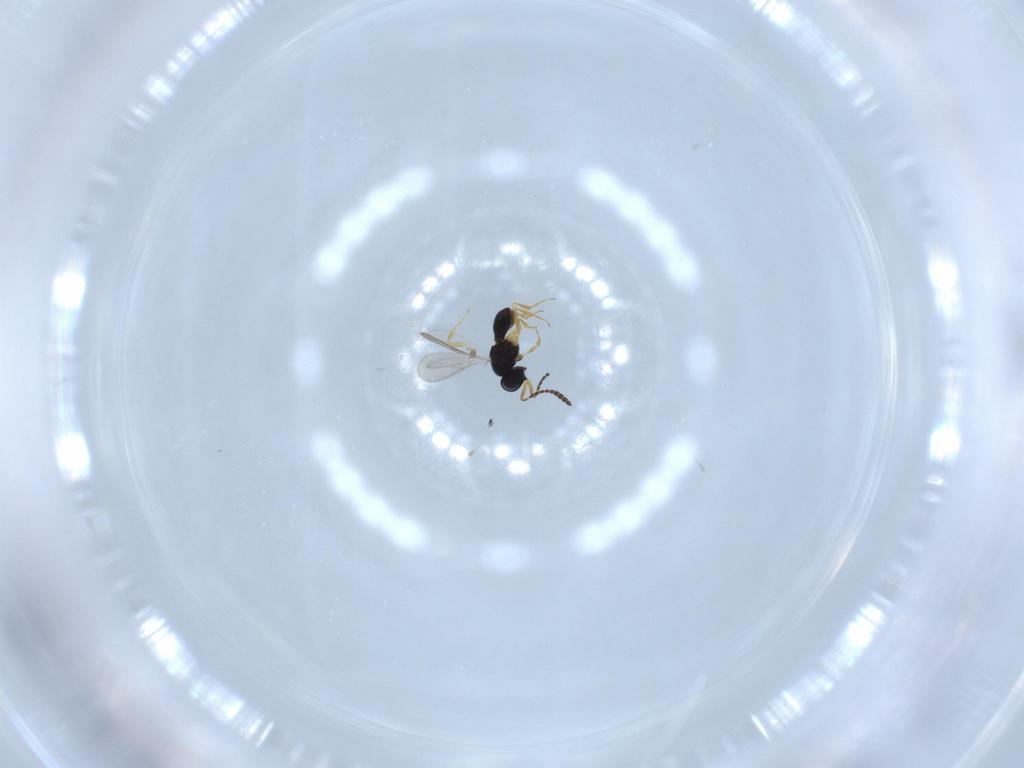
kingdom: Animalia
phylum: Arthropoda
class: Insecta
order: Hymenoptera
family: Scelionidae
